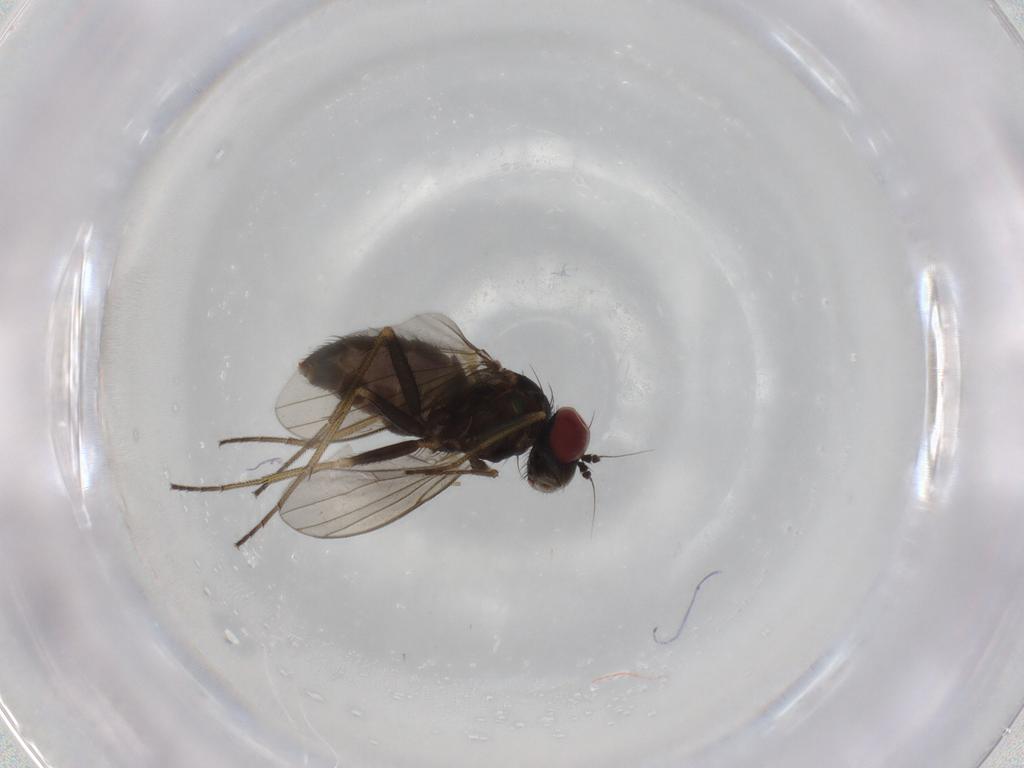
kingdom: Animalia
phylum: Arthropoda
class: Insecta
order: Diptera
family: Dolichopodidae
